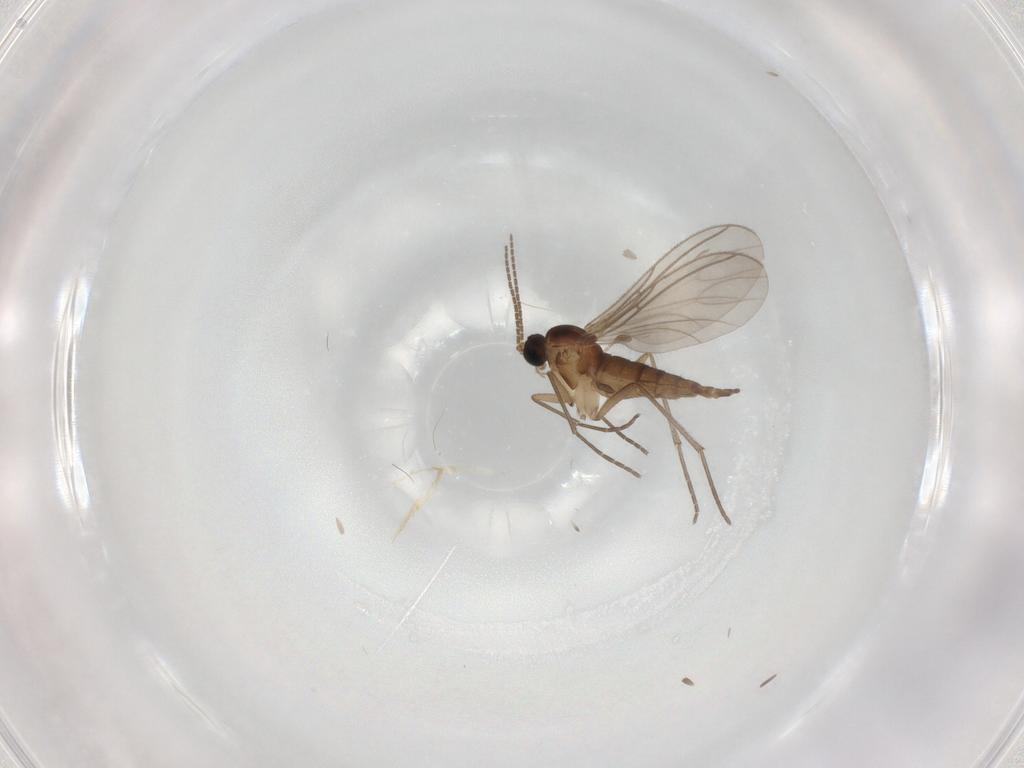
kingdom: Animalia
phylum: Arthropoda
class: Insecta
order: Diptera
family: Sciaridae
